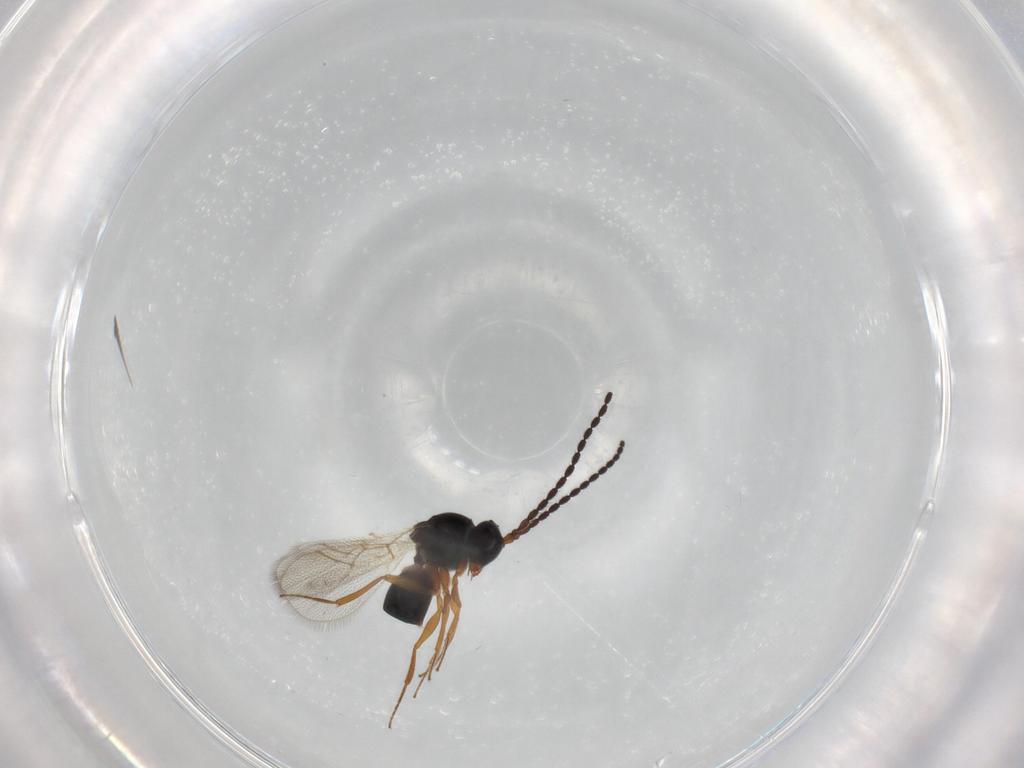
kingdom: Animalia
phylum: Arthropoda
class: Insecta
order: Hymenoptera
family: Figitidae
